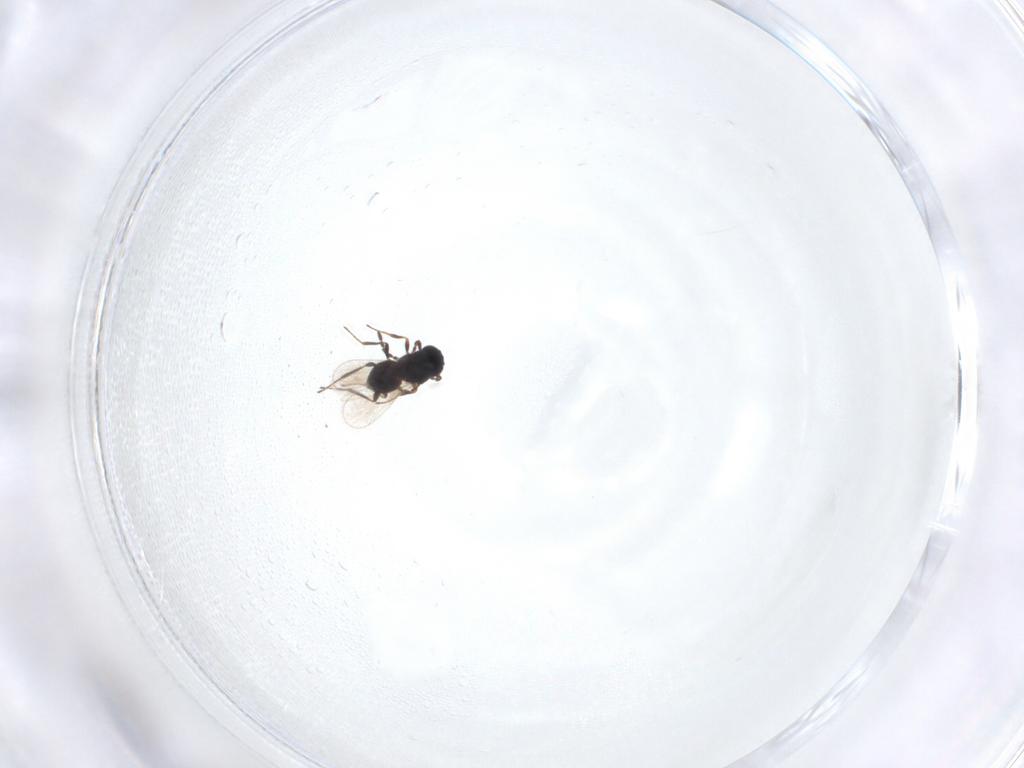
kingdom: Animalia
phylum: Arthropoda
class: Insecta
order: Hymenoptera
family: Platygastridae
